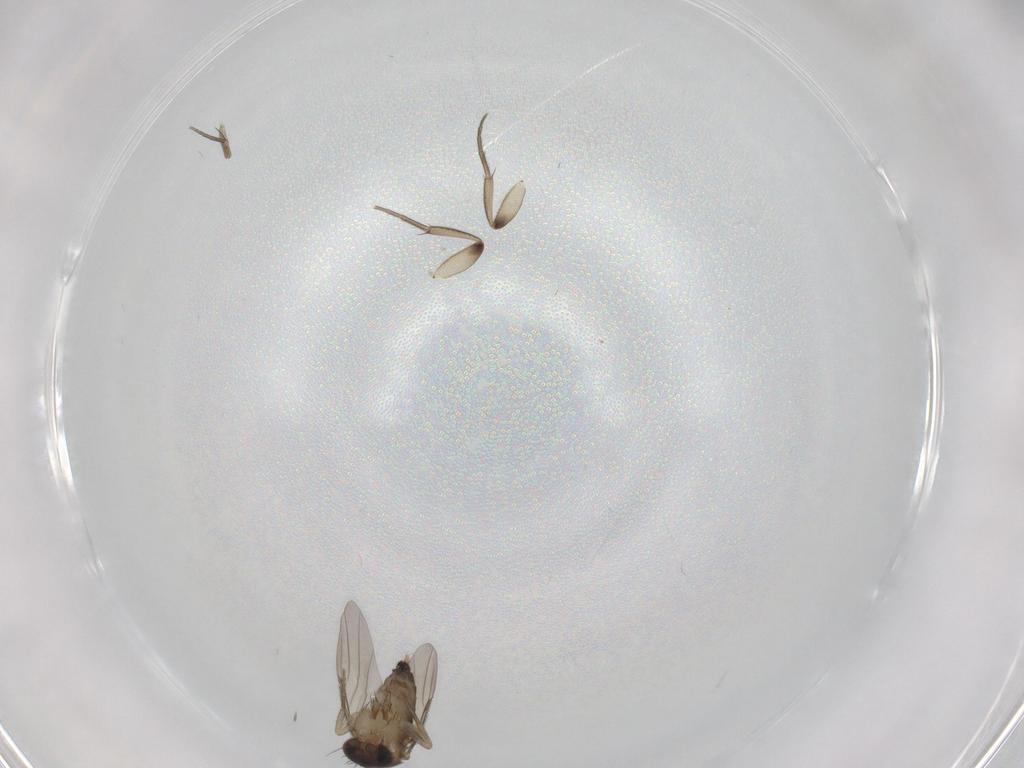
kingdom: Animalia
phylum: Arthropoda
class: Insecta
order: Diptera
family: Phoridae
